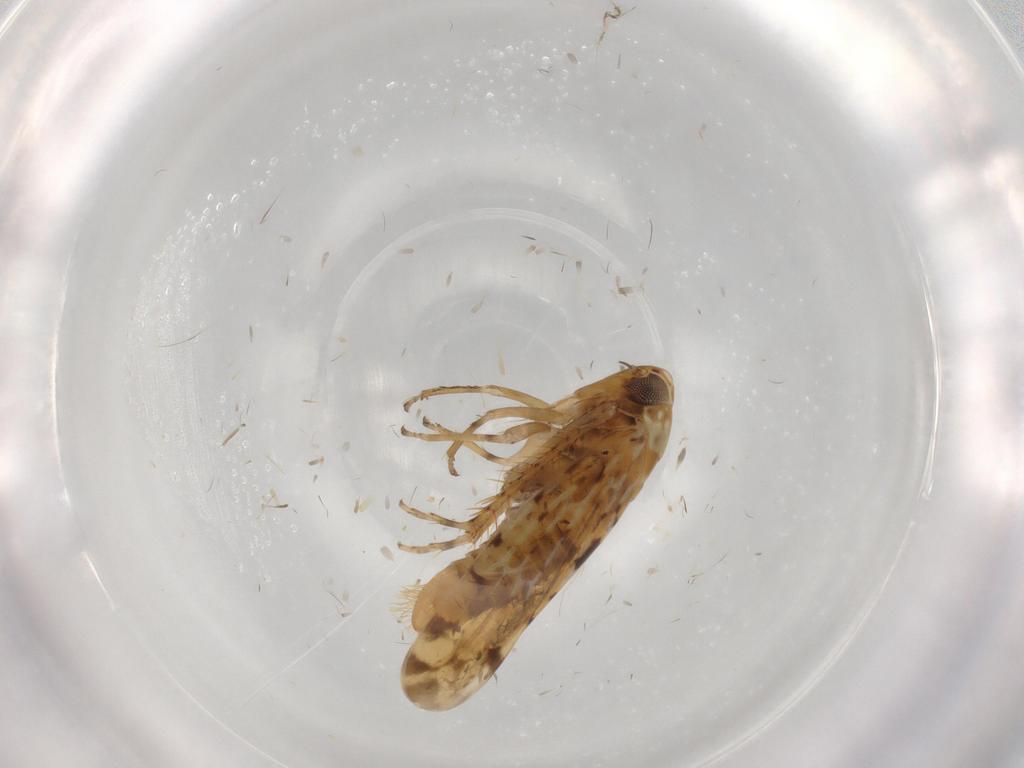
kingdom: Animalia
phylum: Arthropoda
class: Insecta
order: Hemiptera
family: Cicadellidae
